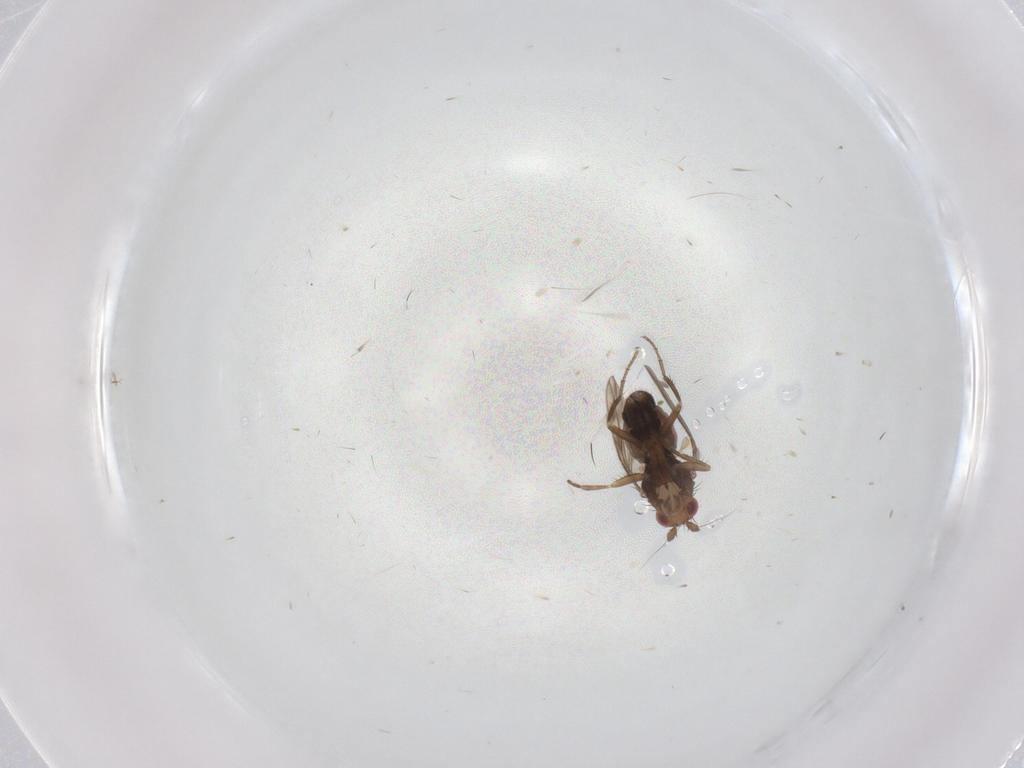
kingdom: Animalia
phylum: Arthropoda
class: Insecta
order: Diptera
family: Sphaeroceridae
